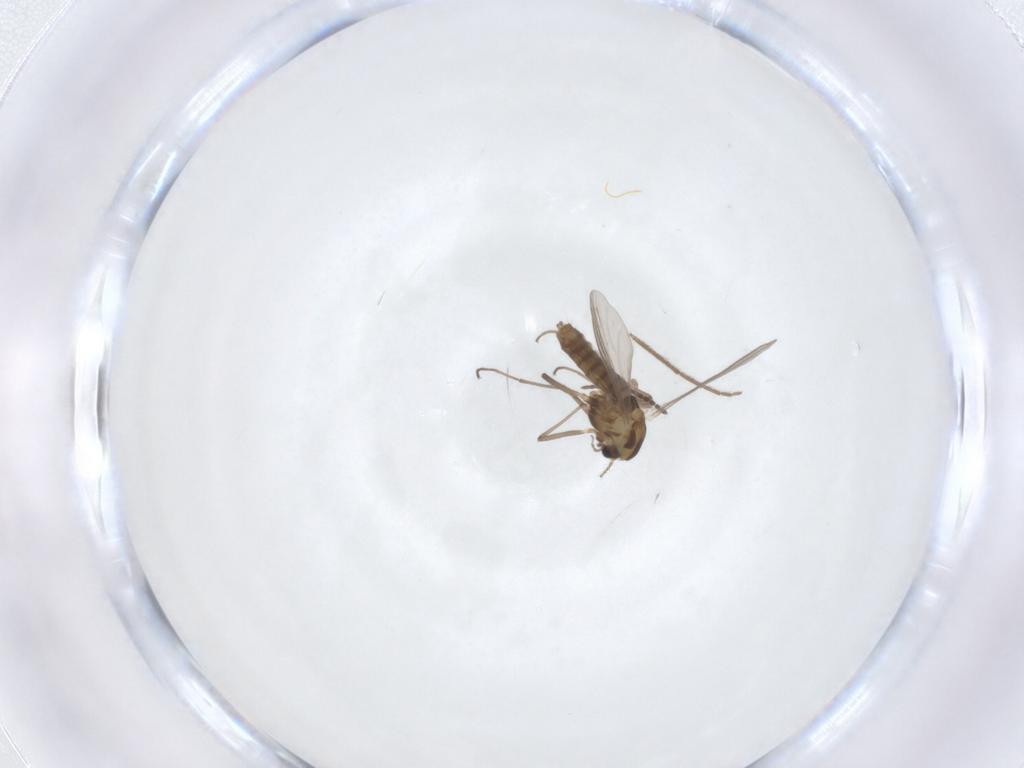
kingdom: Animalia
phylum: Arthropoda
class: Insecta
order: Diptera
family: Chironomidae
